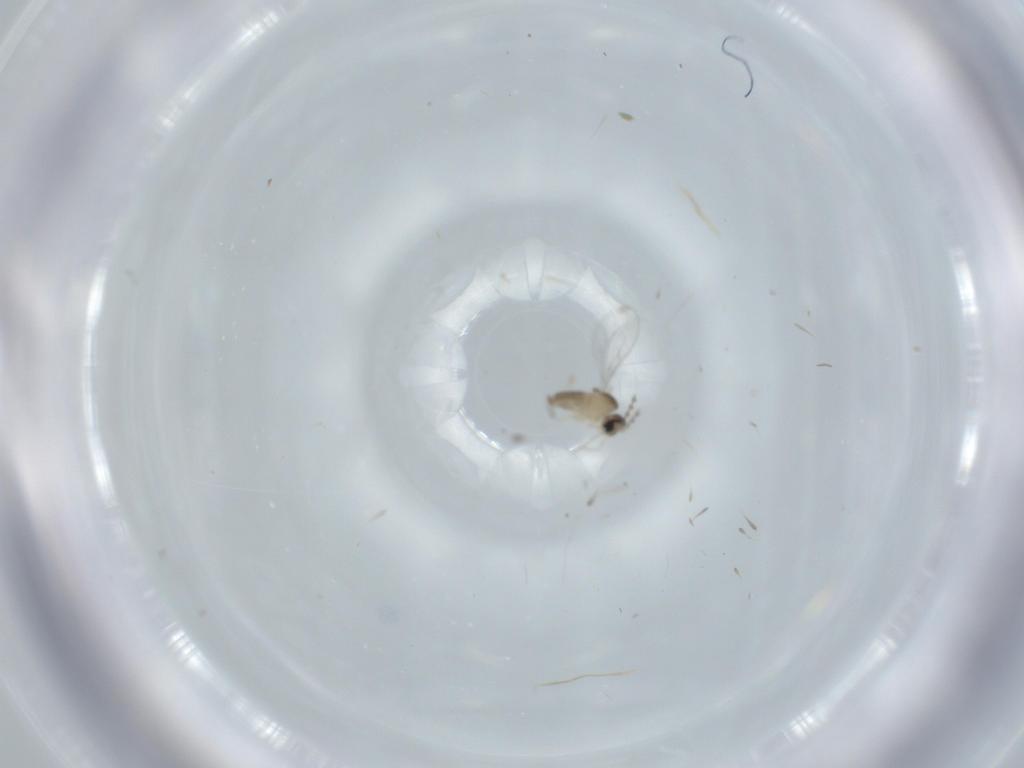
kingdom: Animalia
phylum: Arthropoda
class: Insecta
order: Diptera
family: Cecidomyiidae
